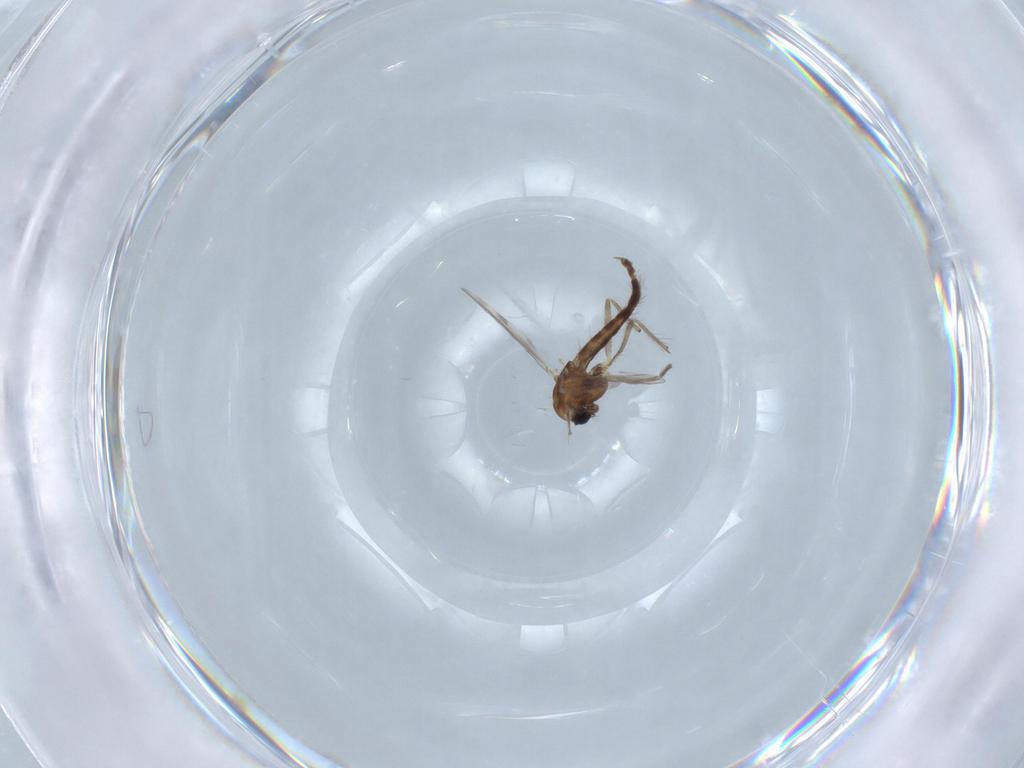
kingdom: Animalia
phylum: Arthropoda
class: Insecta
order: Diptera
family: Chironomidae
